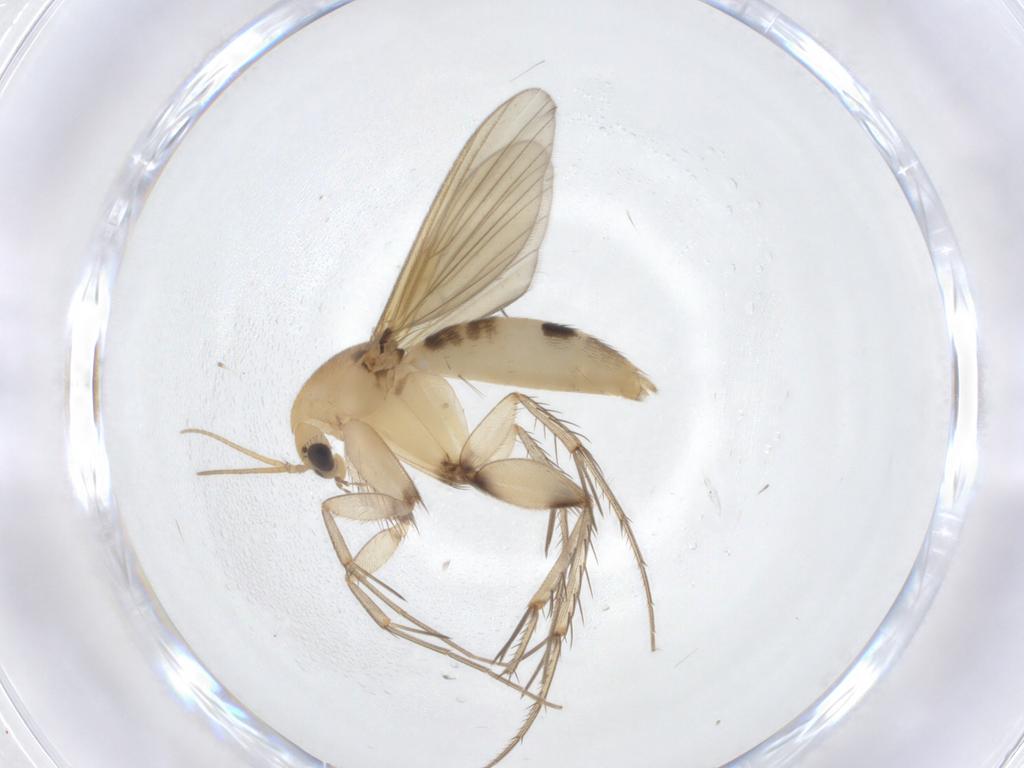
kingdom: Animalia
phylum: Arthropoda
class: Insecta
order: Diptera
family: Mycetophilidae
